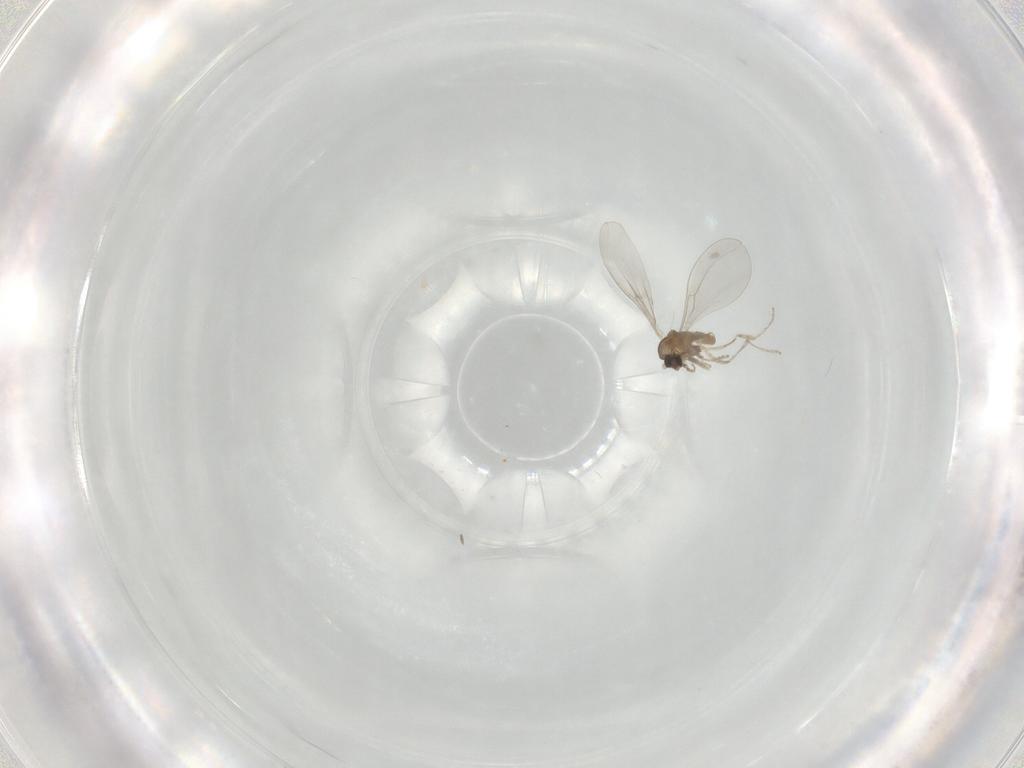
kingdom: Animalia
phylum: Arthropoda
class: Insecta
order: Diptera
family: Cecidomyiidae
